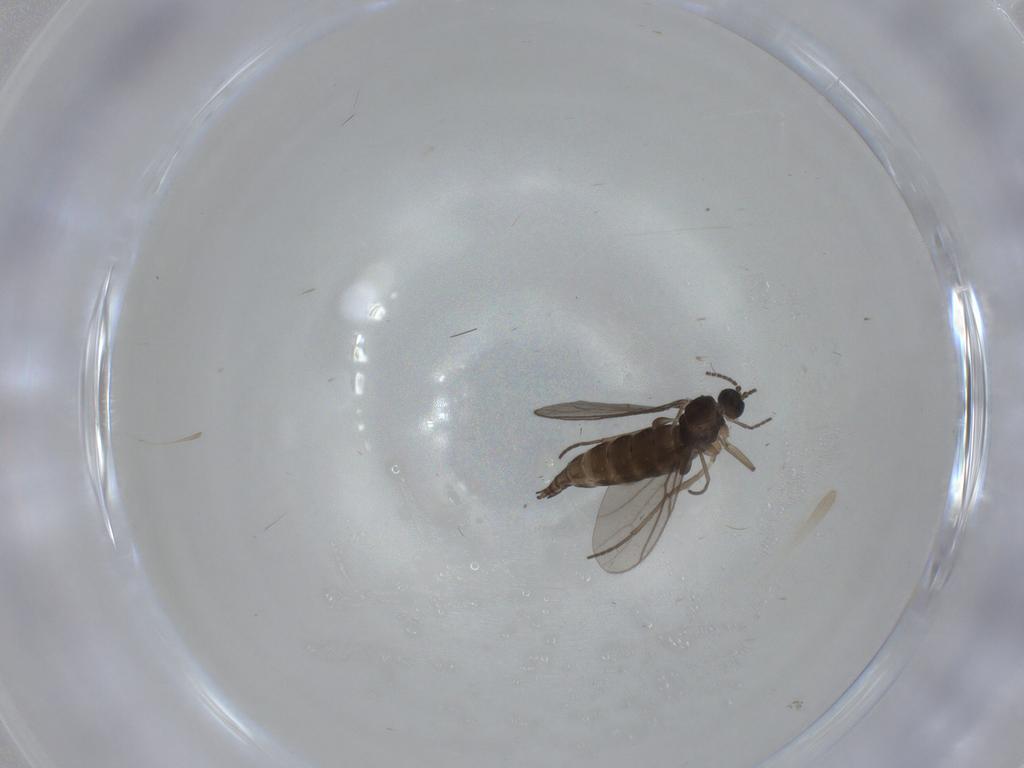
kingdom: Animalia
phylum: Arthropoda
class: Insecta
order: Diptera
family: Sciaridae
